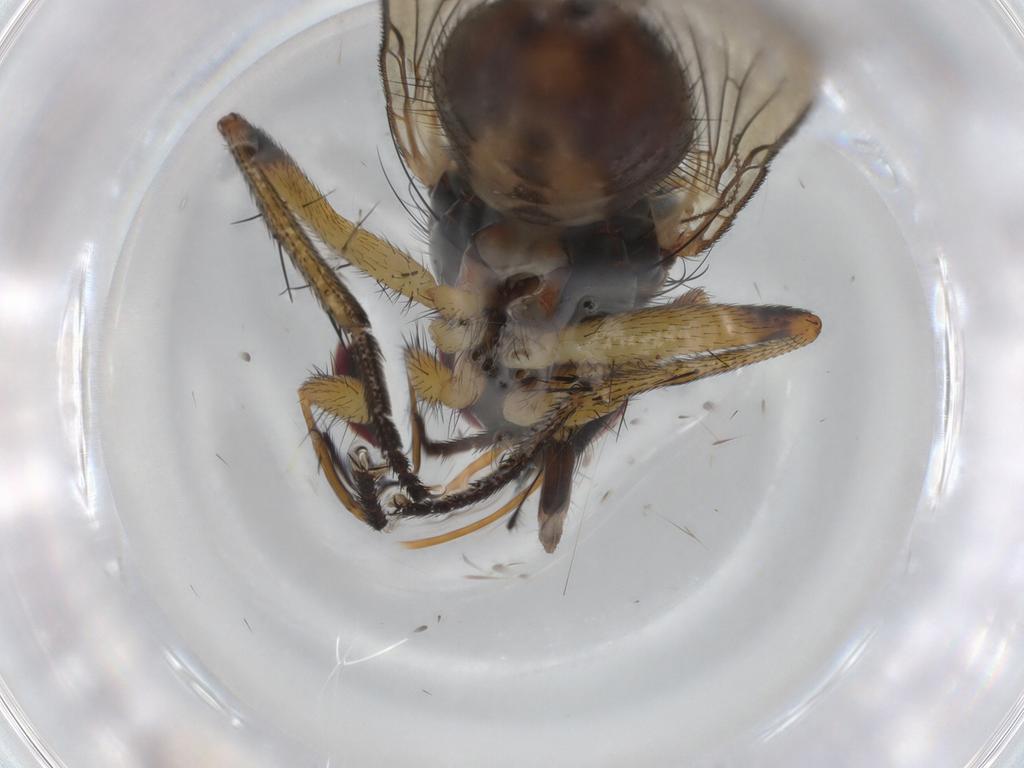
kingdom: Animalia
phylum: Arthropoda
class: Insecta
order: Diptera
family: Muscidae
